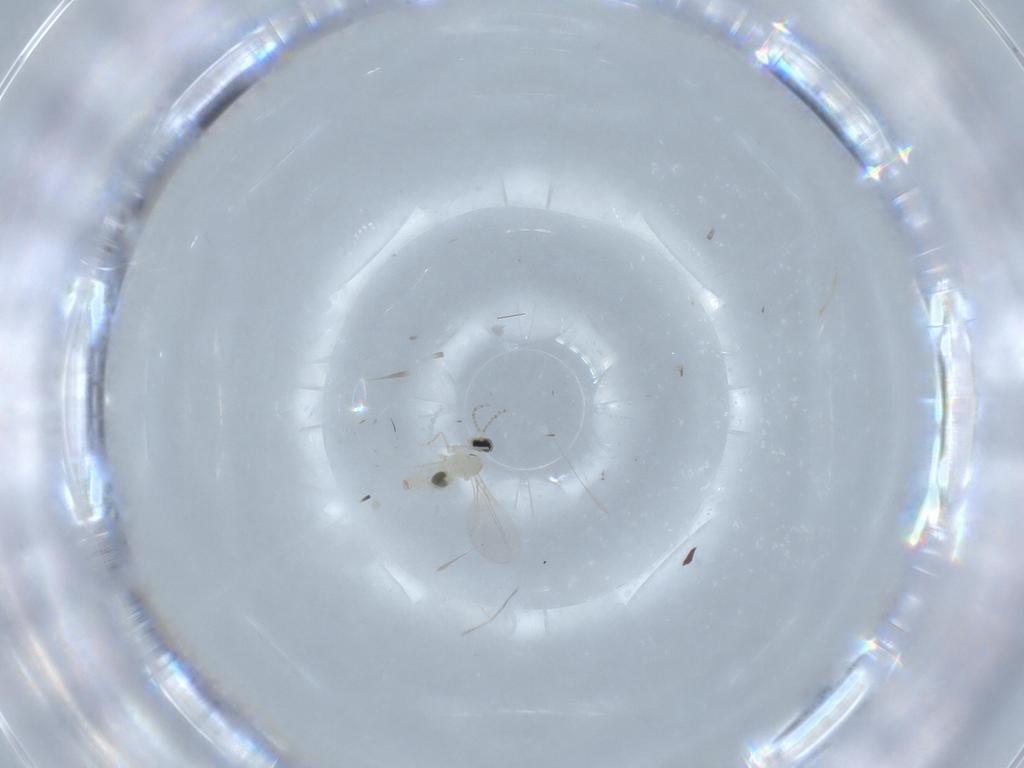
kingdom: Animalia
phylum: Arthropoda
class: Insecta
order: Diptera
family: Cecidomyiidae
